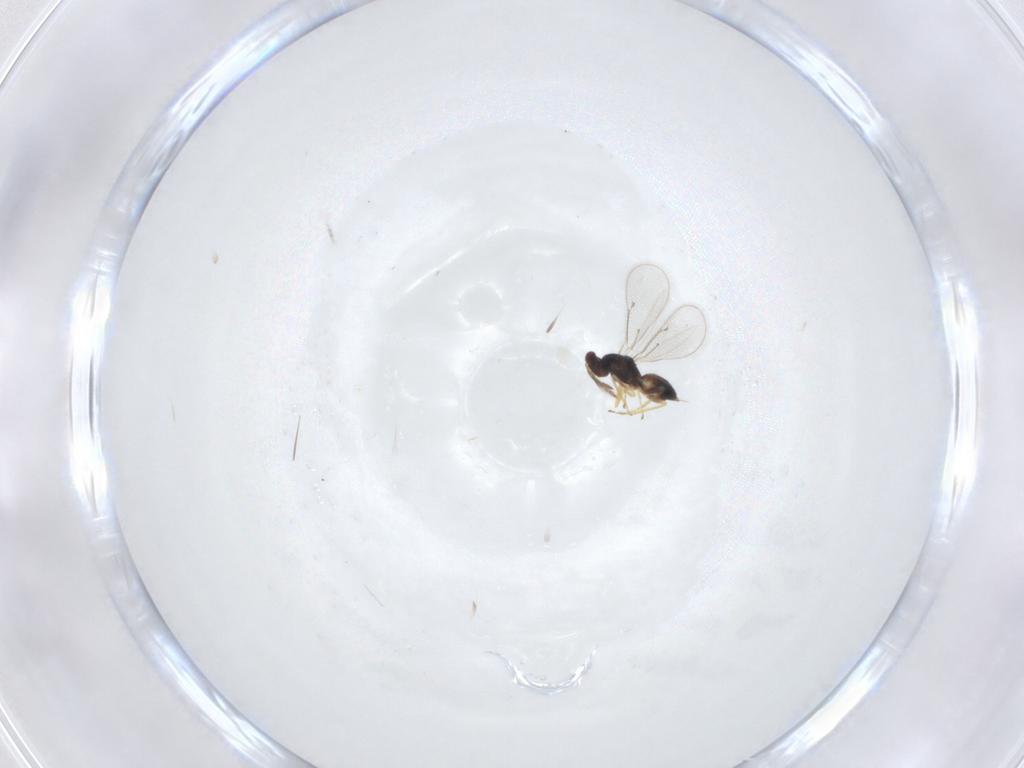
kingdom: Animalia
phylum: Arthropoda
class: Insecta
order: Hymenoptera
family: Eulophidae
